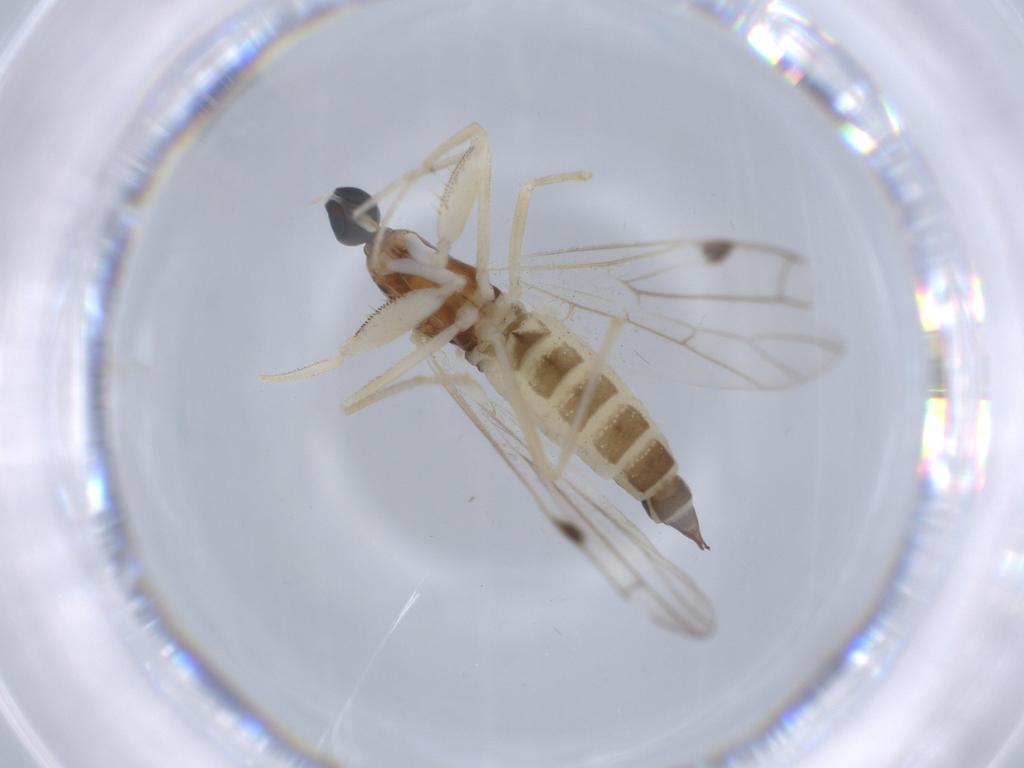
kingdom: Animalia
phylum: Arthropoda
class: Insecta
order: Diptera
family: Empididae
